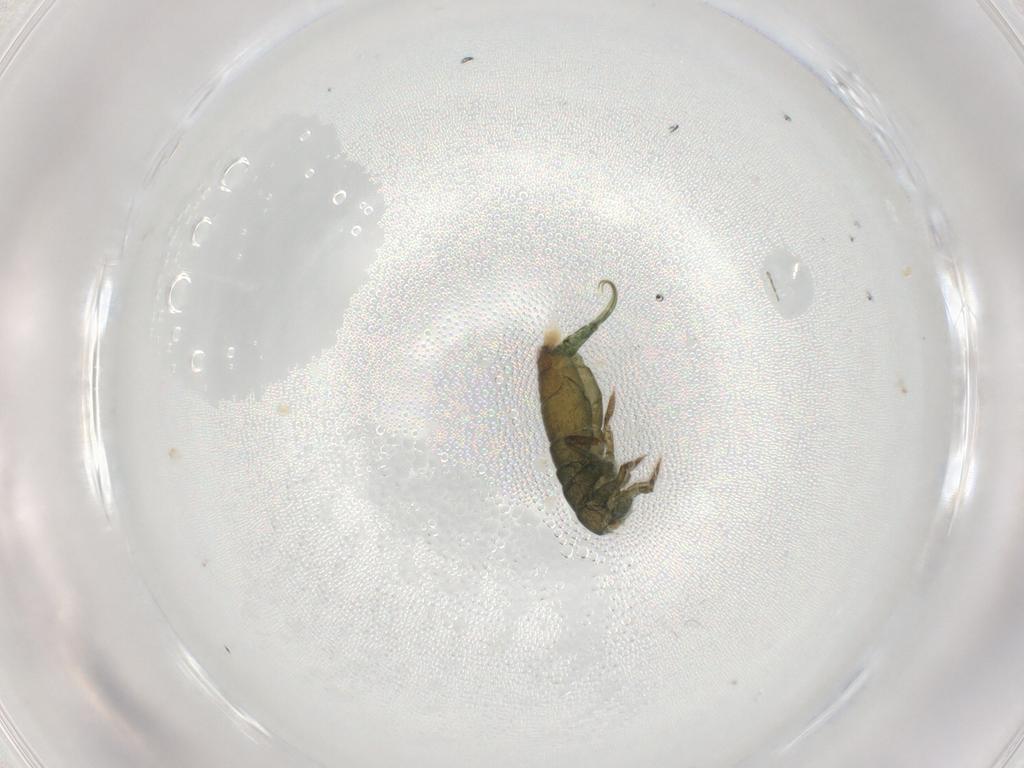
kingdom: Animalia
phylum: Arthropoda
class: Collembola
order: Entomobryomorpha
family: Isotomidae
